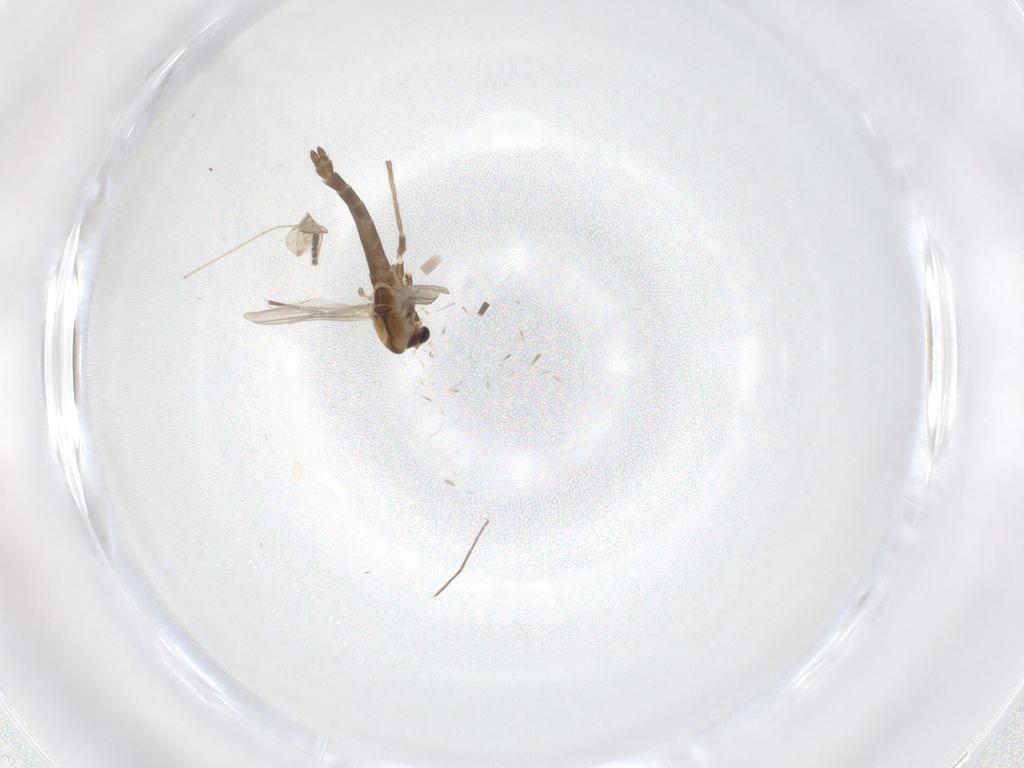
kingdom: Animalia
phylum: Arthropoda
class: Insecta
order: Diptera
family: Chironomidae
